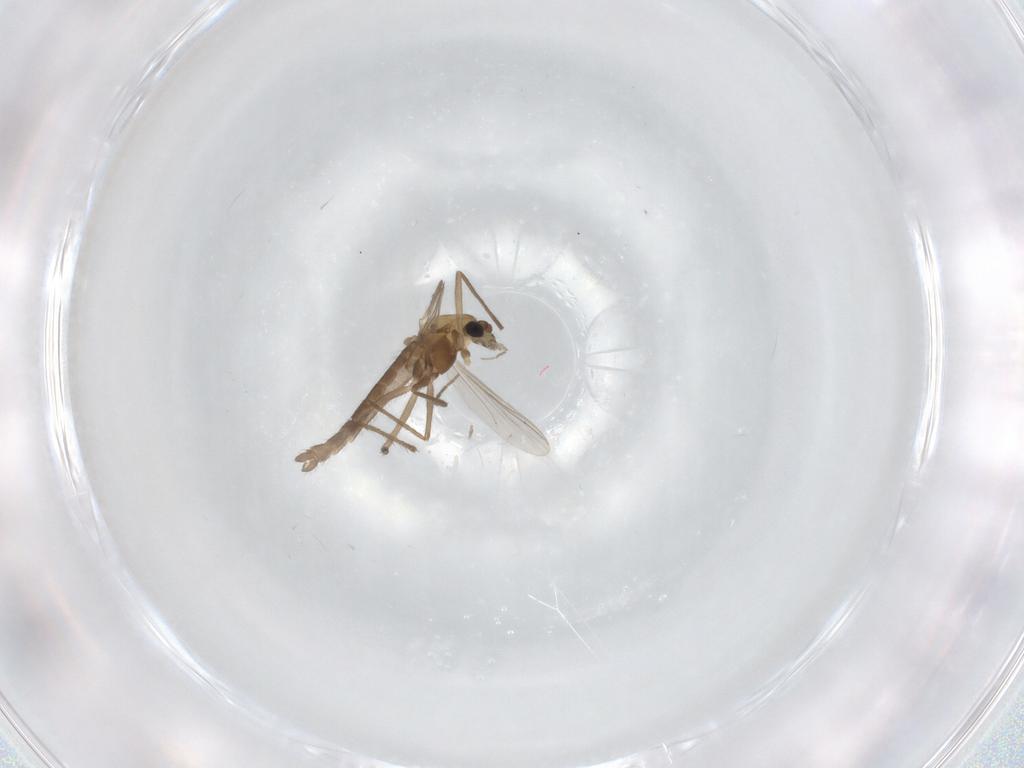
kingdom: Animalia
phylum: Arthropoda
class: Insecta
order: Diptera
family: Chironomidae
